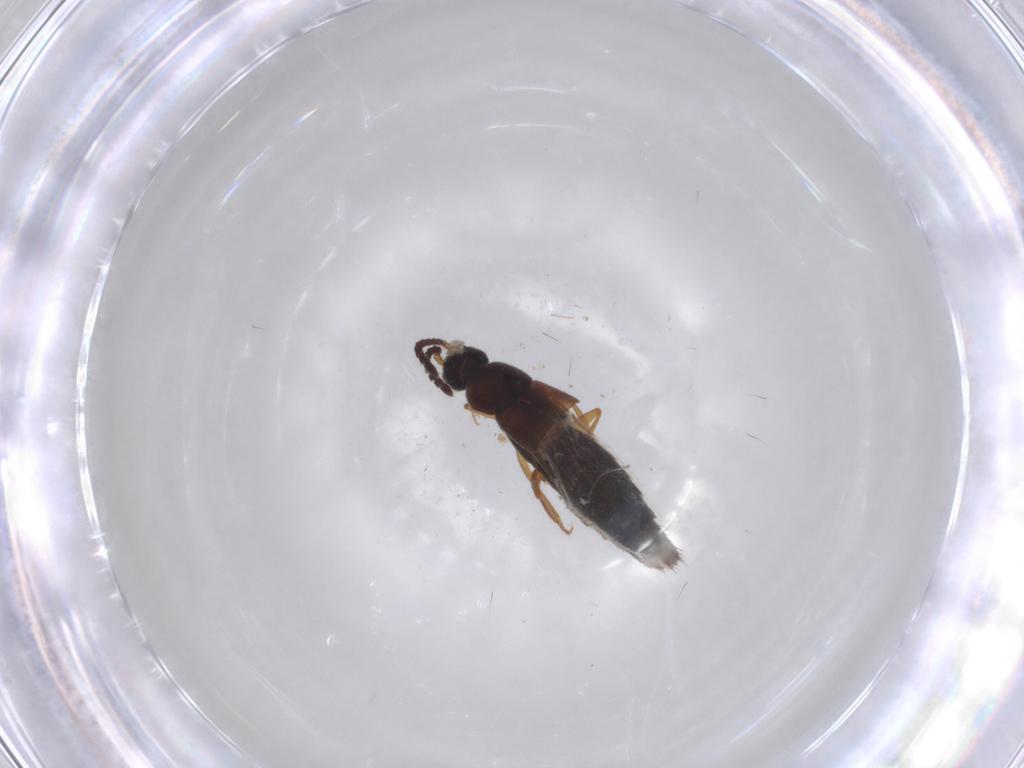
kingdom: Animalia
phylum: Arthropoda
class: Insecta
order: Coleoptera
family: Staphylinidae
